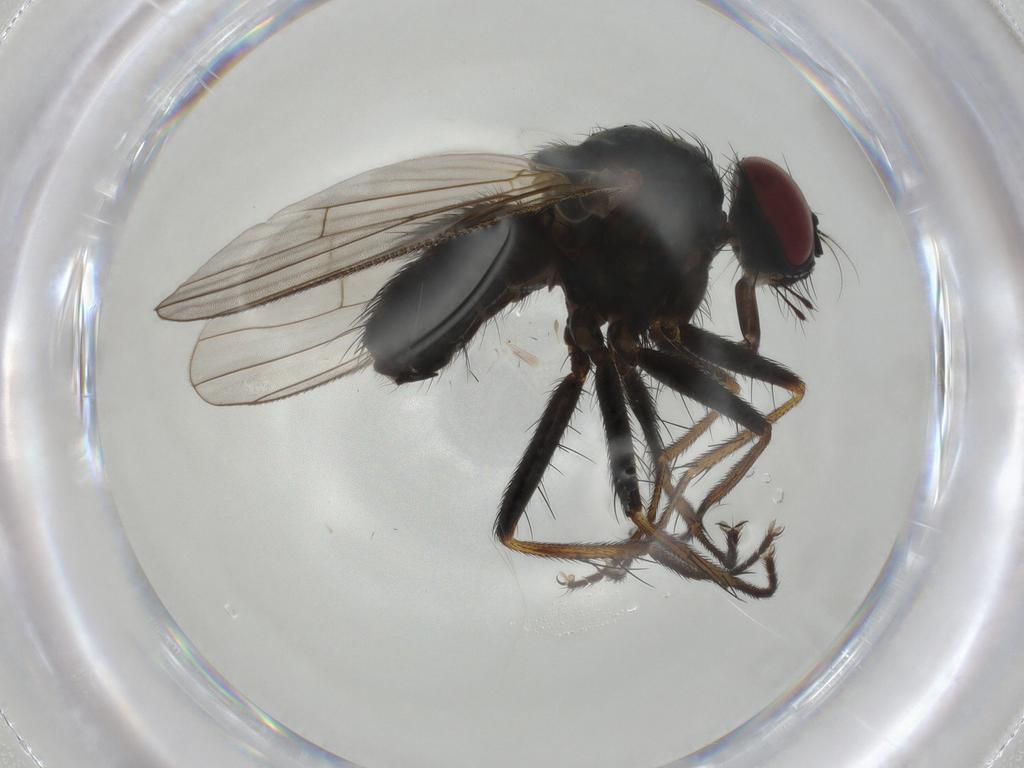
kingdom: Animalia
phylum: Arthropoda
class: Insecta
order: Diptera
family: Muscidae
